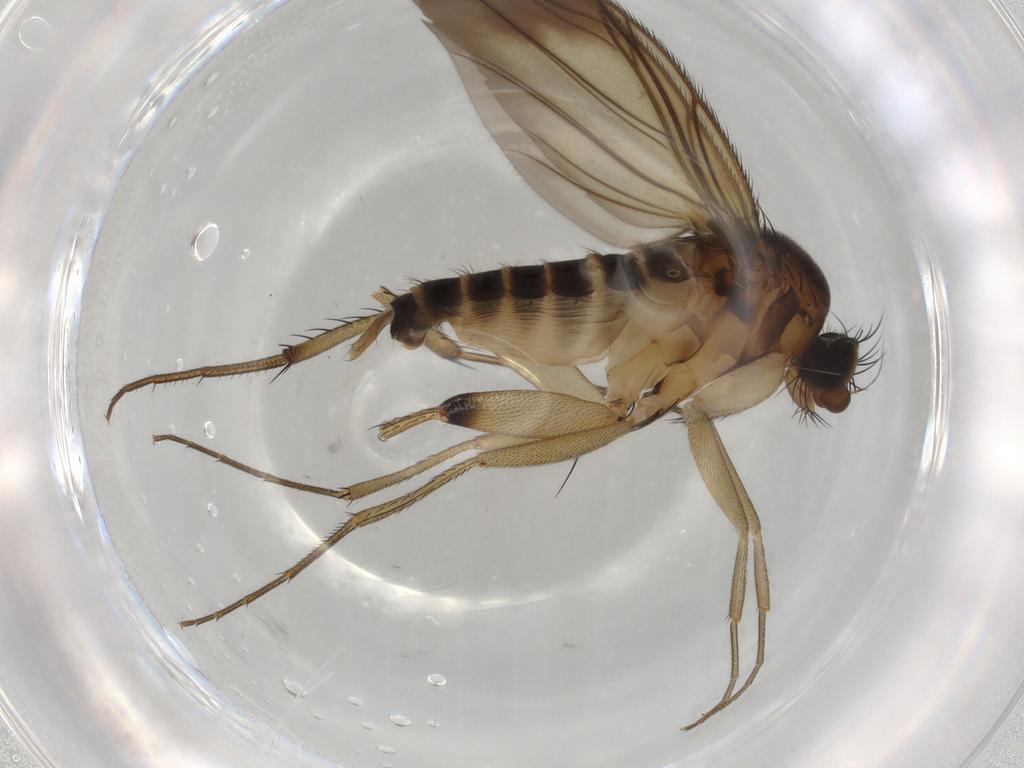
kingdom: Animalia
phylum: Arthropoda
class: Insecta
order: Diptera
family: Phoridae
